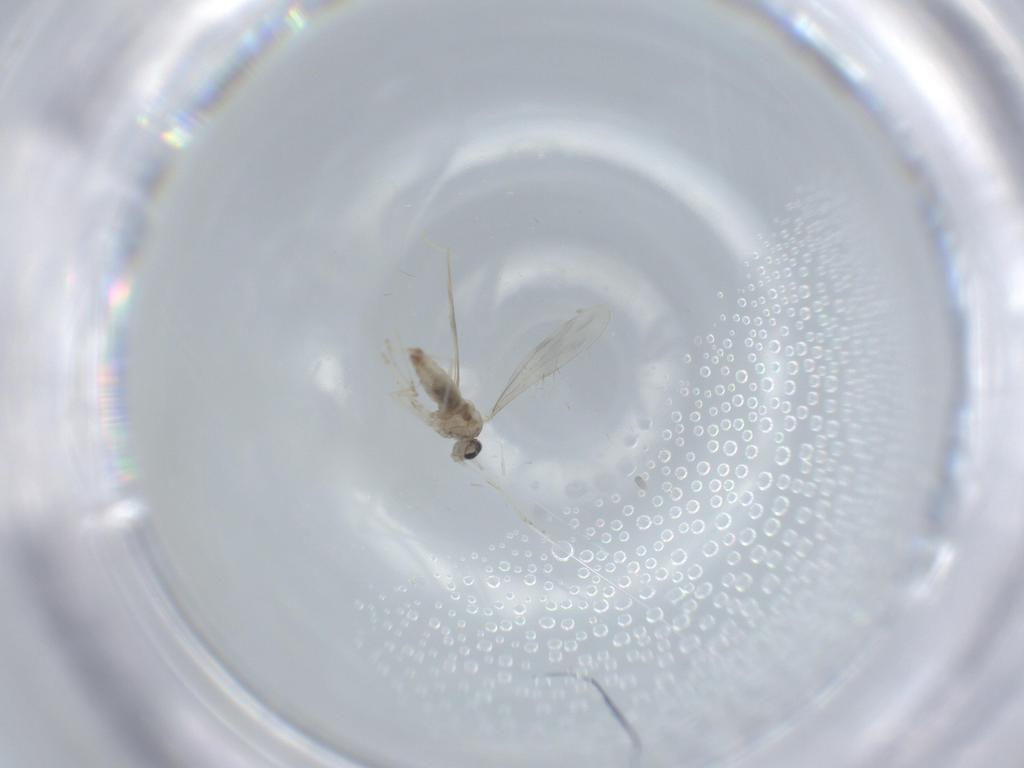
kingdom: Animalia
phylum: Arthropoda
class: Insecta
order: Diptera
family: Cecidomyiidae
